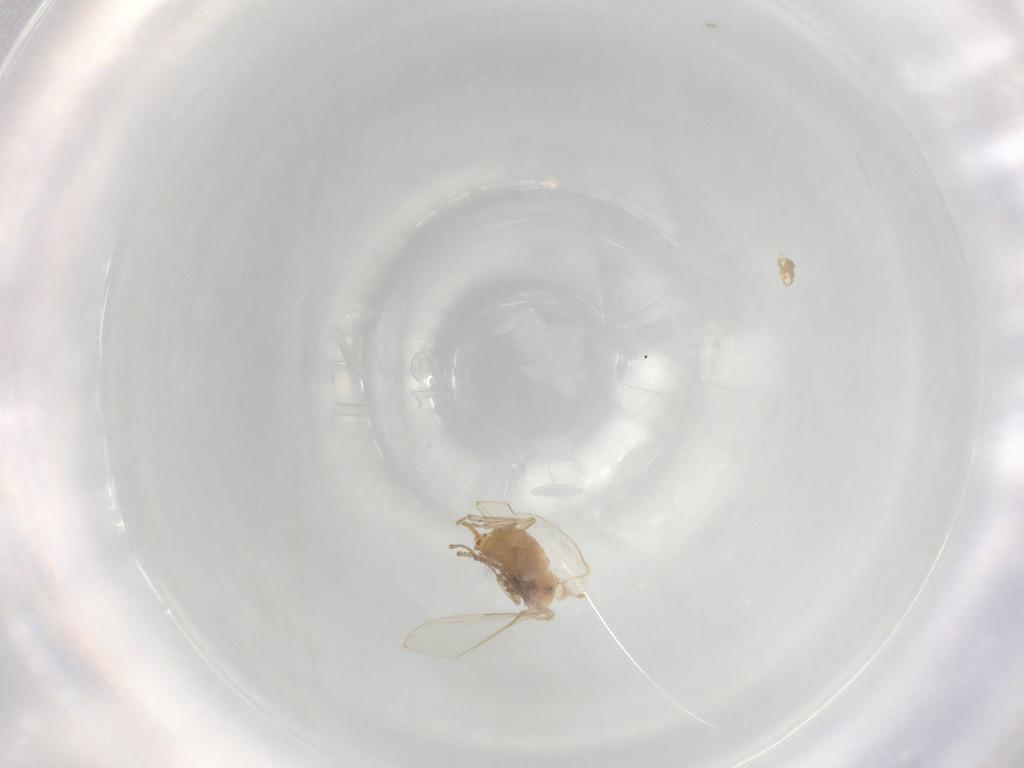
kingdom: Animalia
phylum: Arthropoda
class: Insecta
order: Diptera
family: Psychodidae
